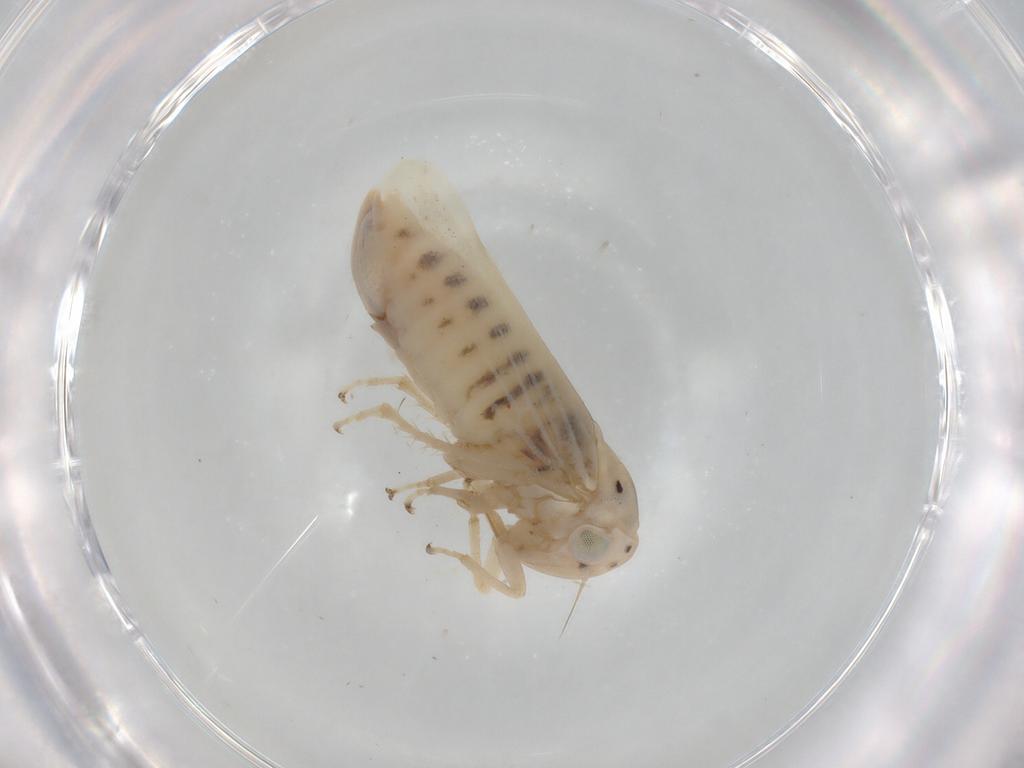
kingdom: Animalia
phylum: Arthropoda
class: Insecta
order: Hemiptera
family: Cicadellidae
